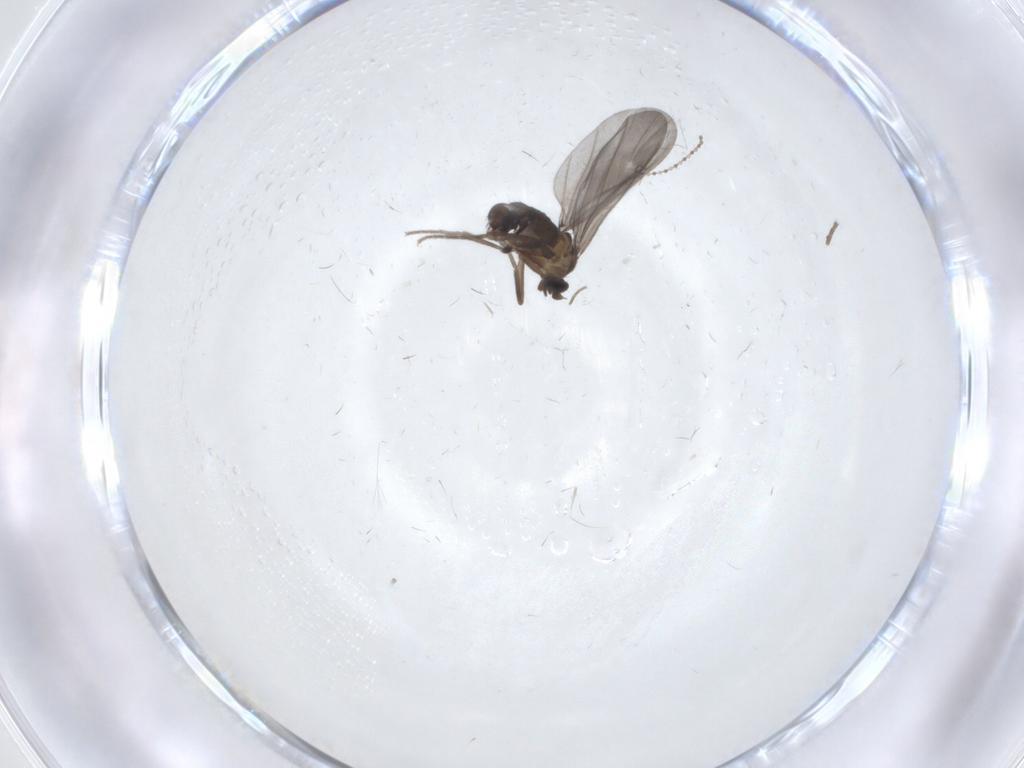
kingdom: Animalia
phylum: Arthropoda
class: Insecta
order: Diptera
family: Phoridae
